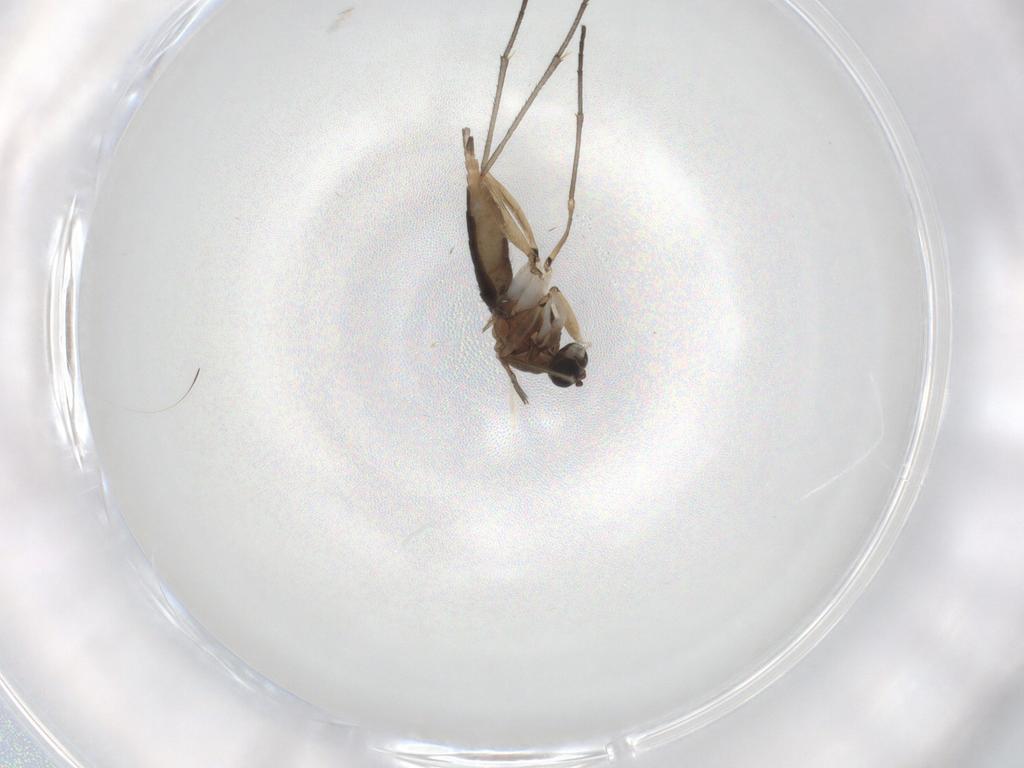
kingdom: Animalia
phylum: Arthropoda
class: Insecta
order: Diptera
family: Sciaridae
